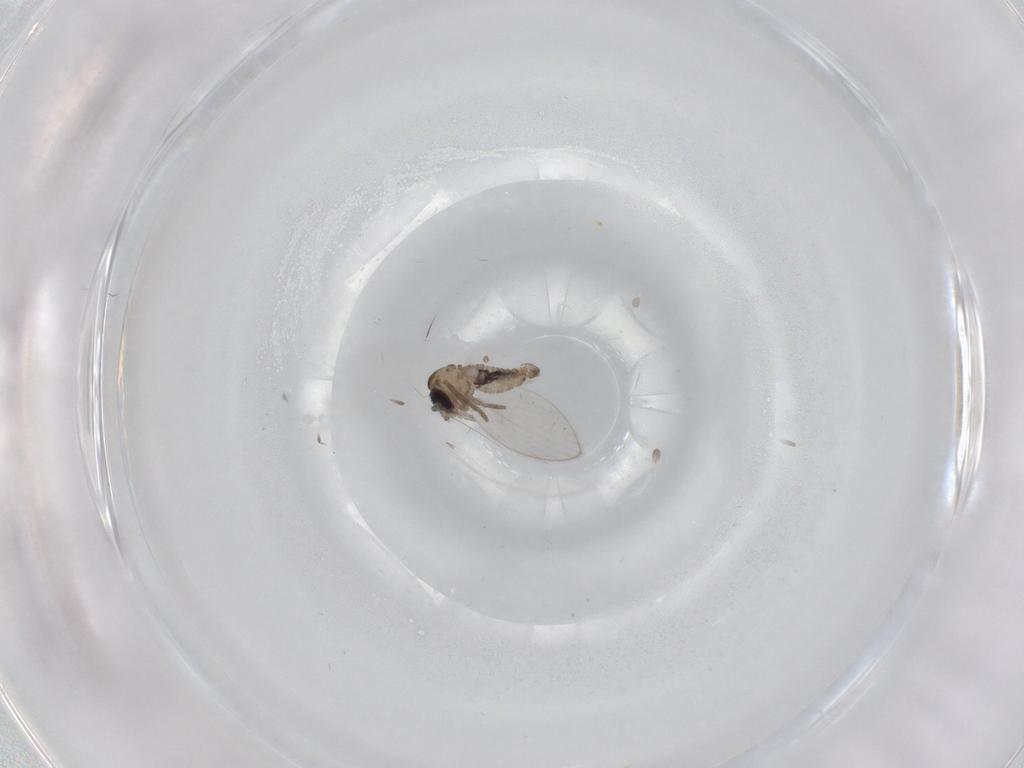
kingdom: Animalia
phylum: Arthropoda
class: Insecta
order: Diptera
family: Psychodidae
